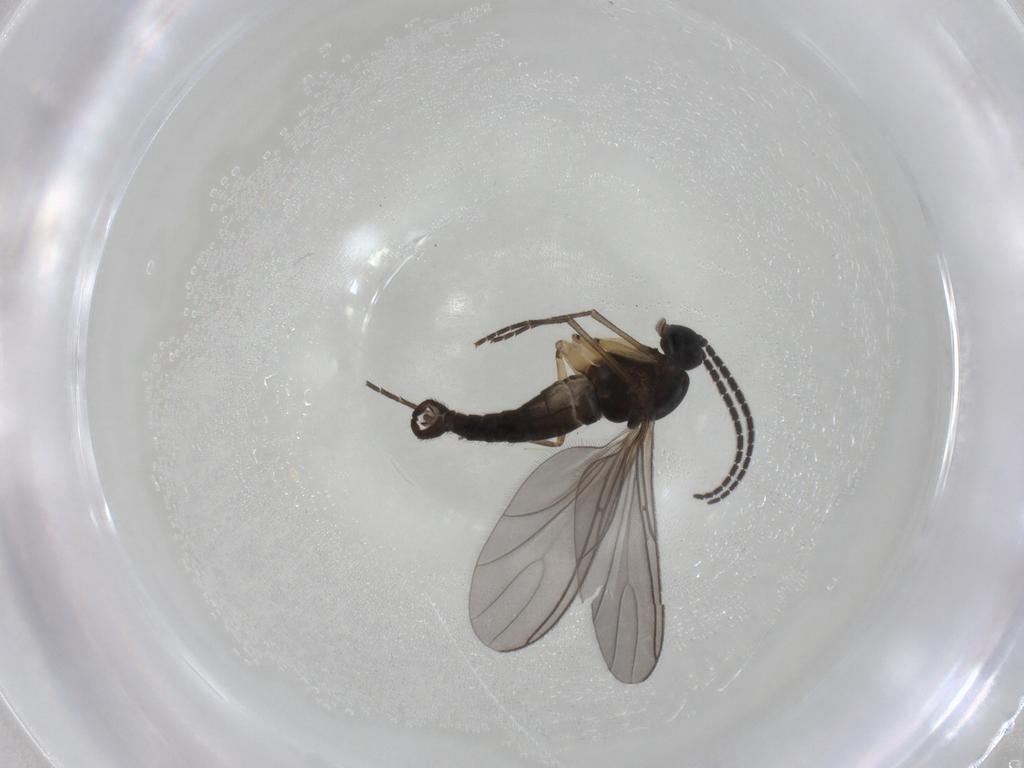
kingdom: Animalia
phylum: Arthropoda
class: Insecta
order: Diptera
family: Sciaridae
